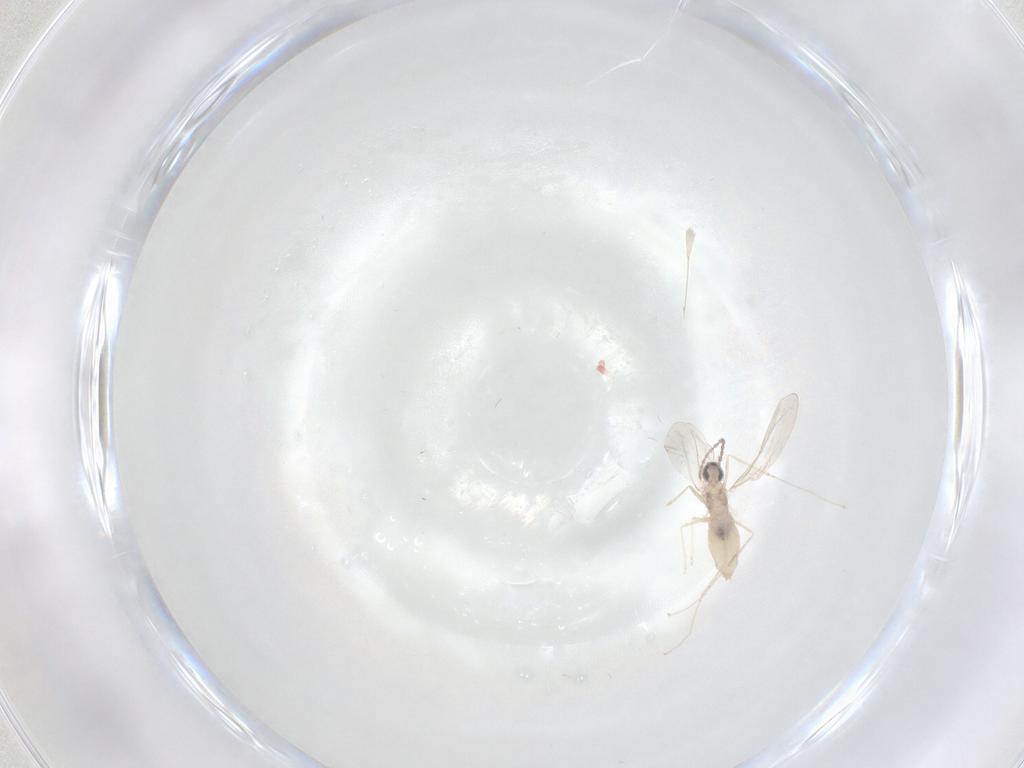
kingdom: Animalia
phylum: Arthropoda
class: Insecta
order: Diptera
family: Cecidomyiidae
